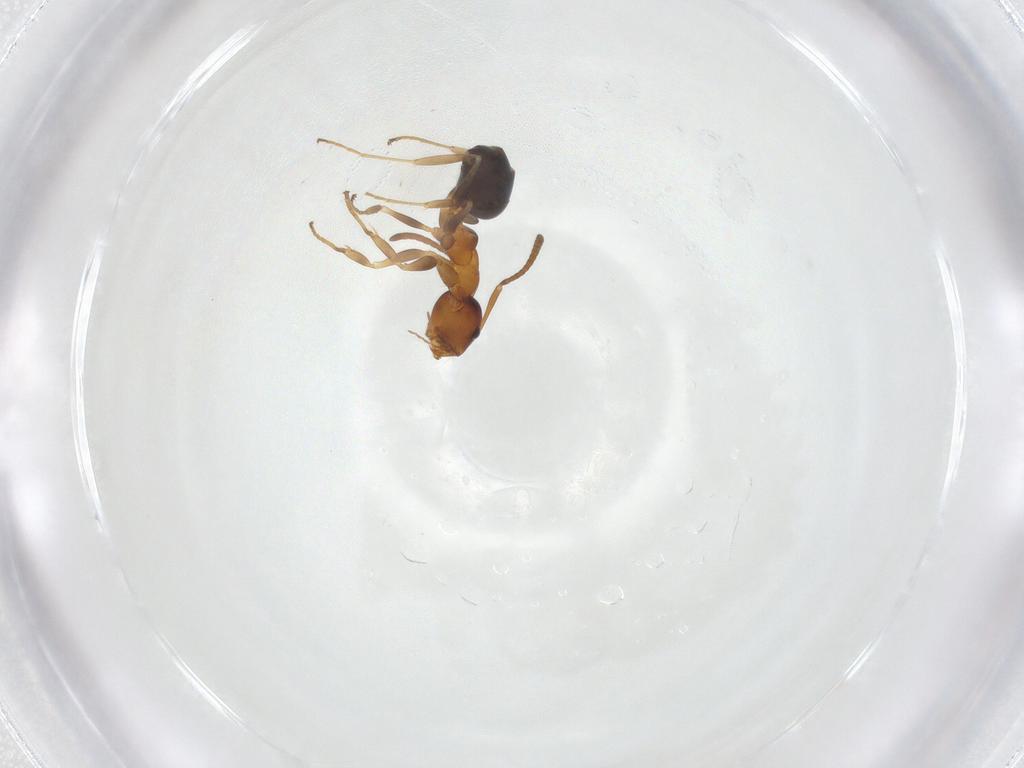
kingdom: Animalia
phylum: Arthropoda
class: Insecta
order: Hymenoptera
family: Formicidae
